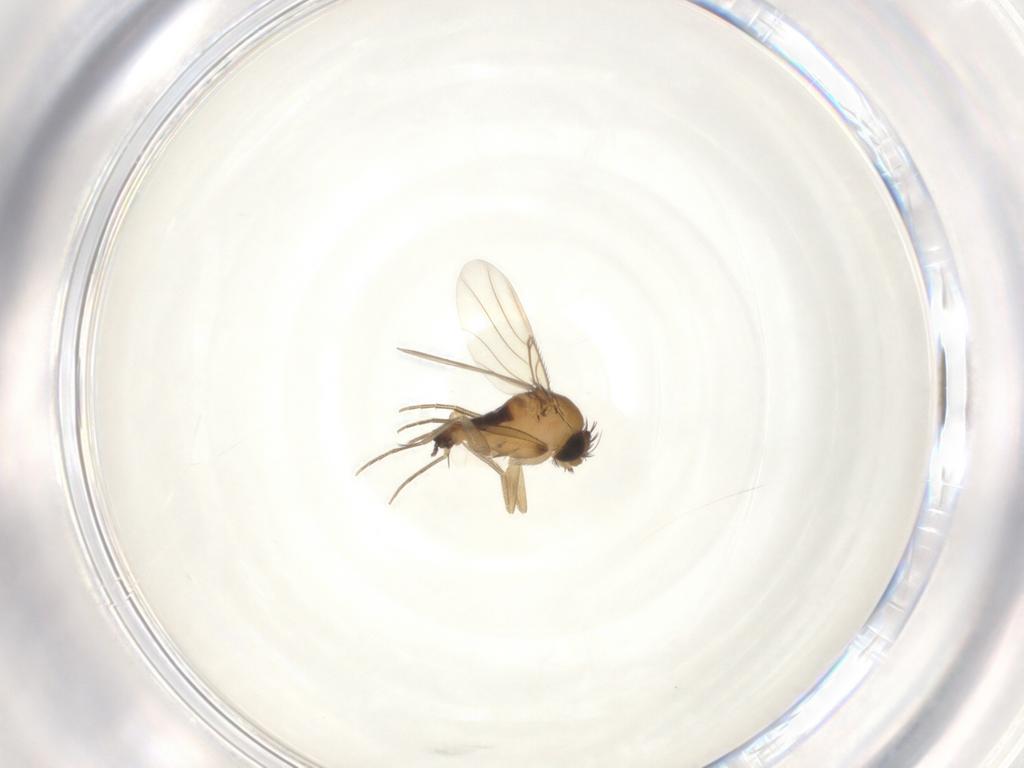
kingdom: Animalia
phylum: Arthropoda
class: Insecta
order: Diptera
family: Phoridae
